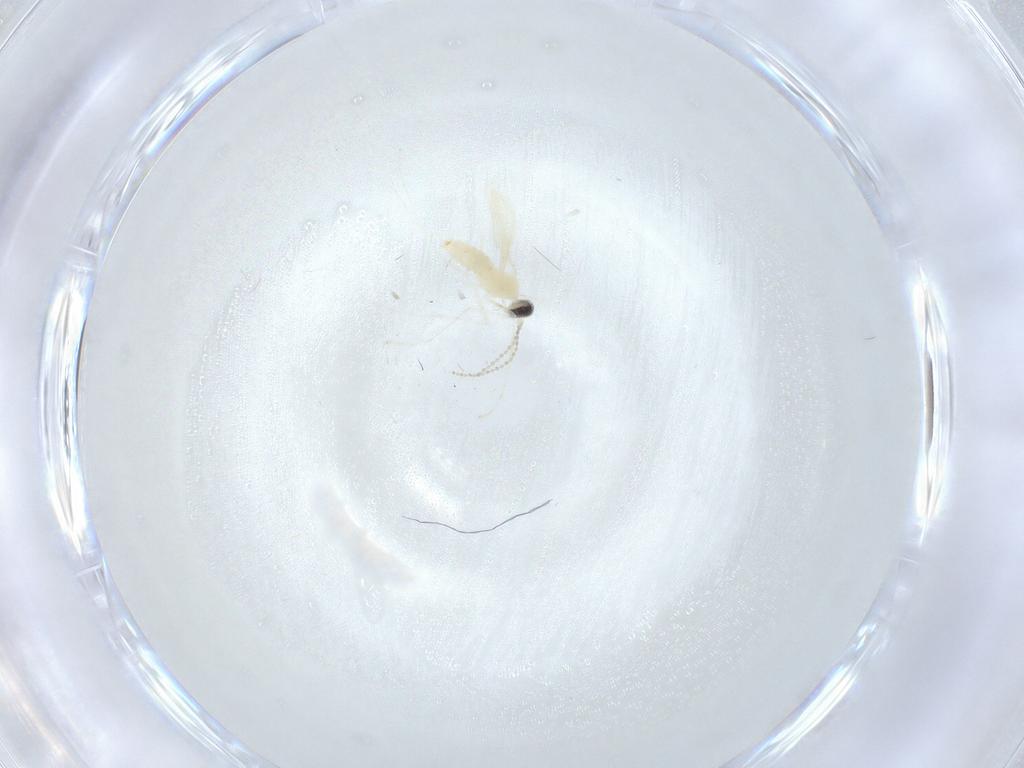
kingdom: Animalia
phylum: Arthropoda
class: Insecta
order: Diptera
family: Cecidomyiidae
